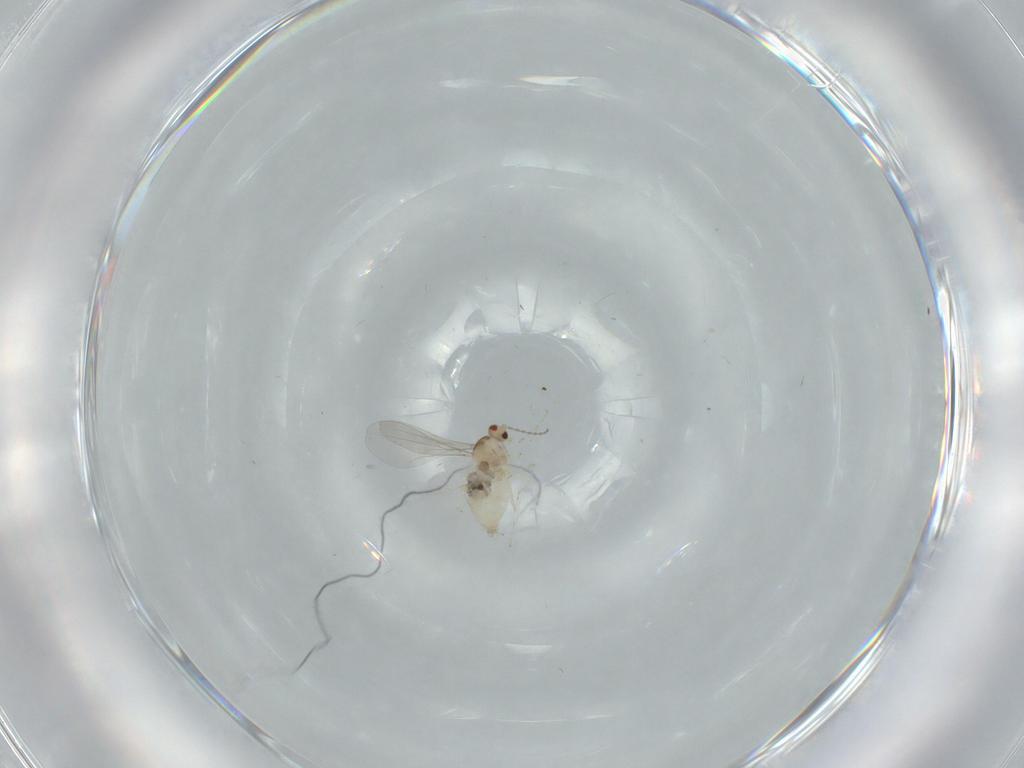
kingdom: Animalia
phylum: Arthropoda
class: Insecta
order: Diptera
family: Cecidomyiidae
